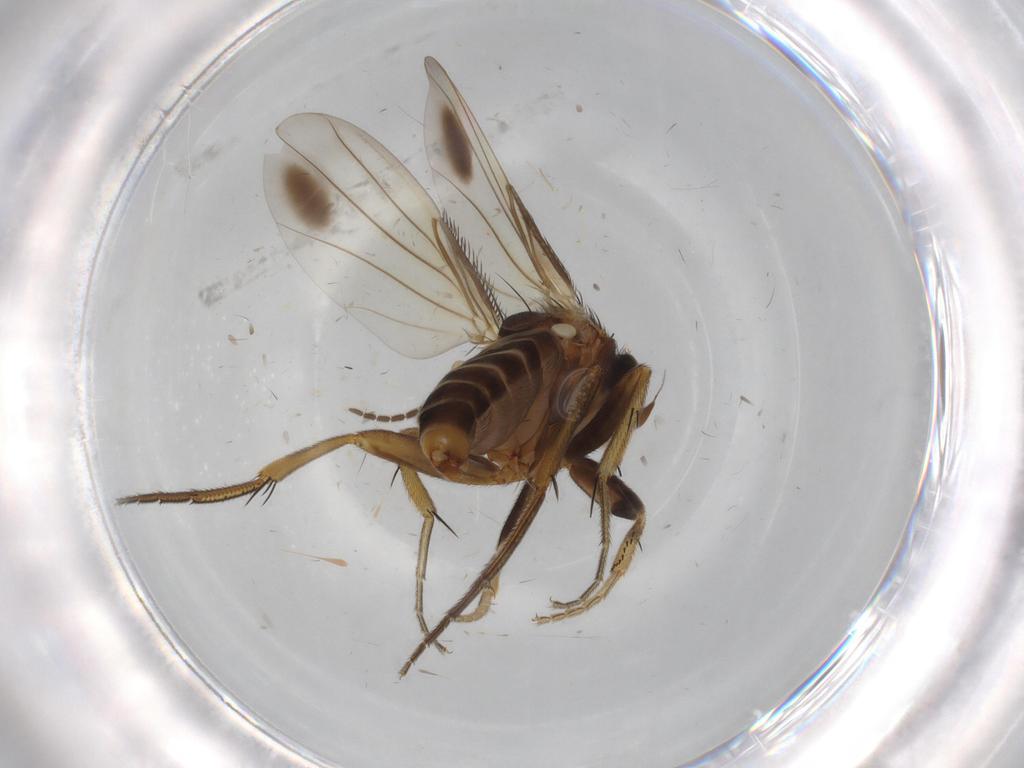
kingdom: Animalia
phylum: Arthropoda
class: Insecta
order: Diptera
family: Phoridae
